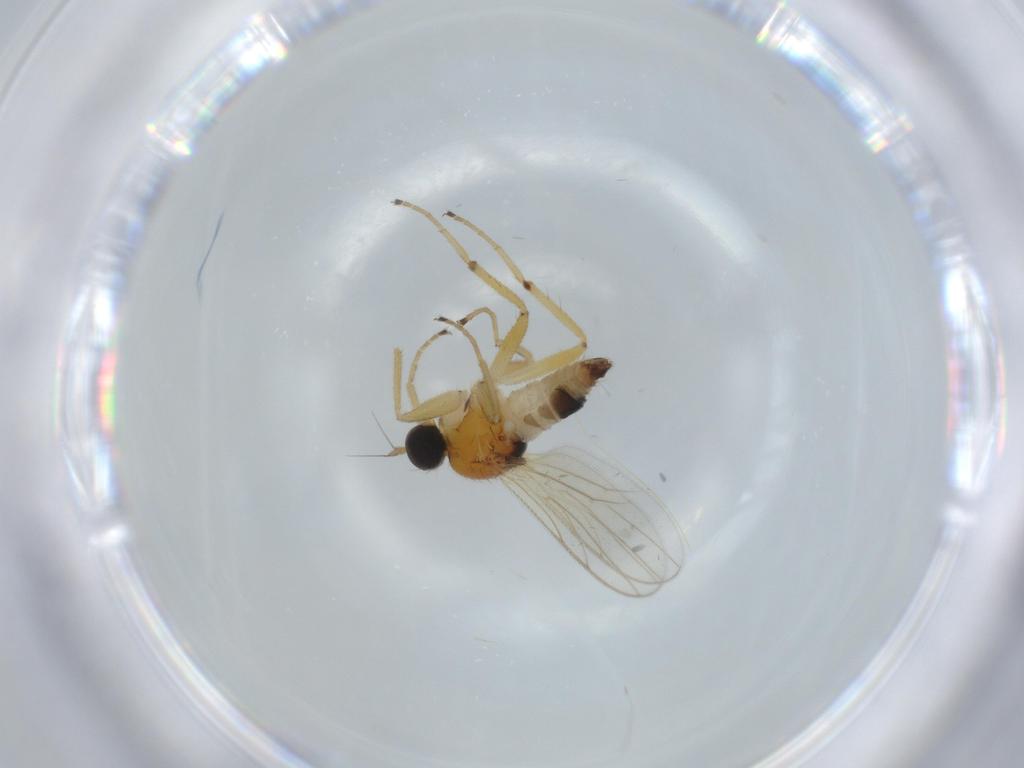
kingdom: Animalia
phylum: Arthropoda
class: Insecta
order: Diptera
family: Hybotidae
